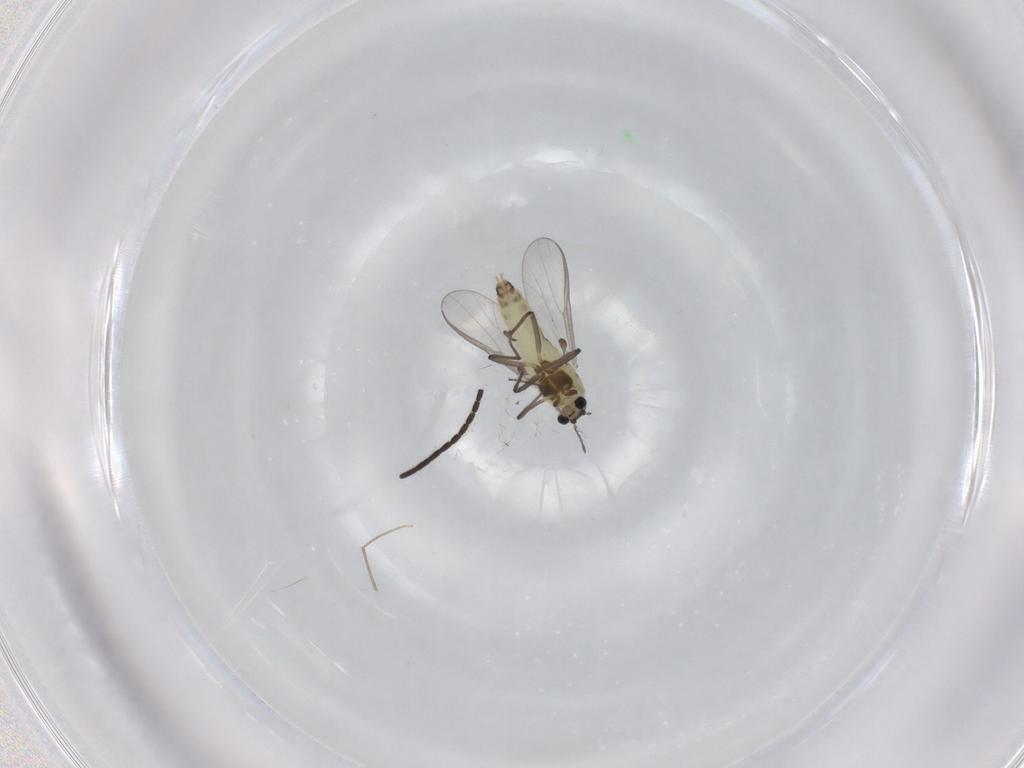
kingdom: Animalia
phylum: Arthropoda
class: Insecta
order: Diptera
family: Chironomidae
